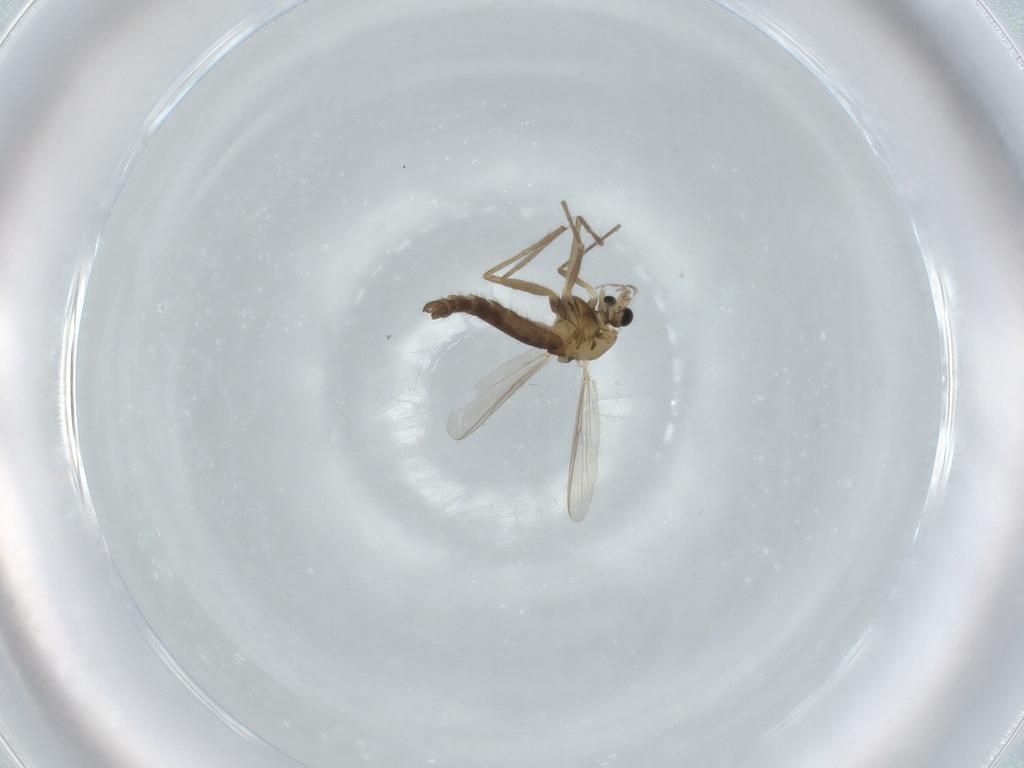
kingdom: Animalia
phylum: Arthropoda
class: Insecta
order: Diptera
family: Chironomidae
